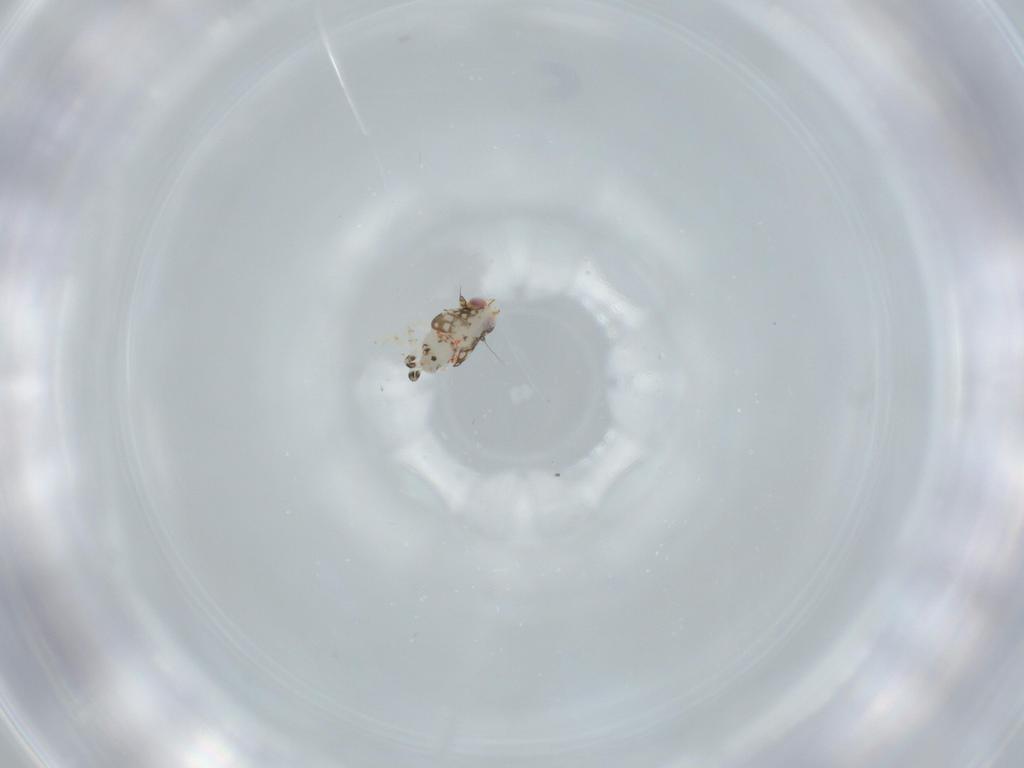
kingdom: Animalia
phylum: Arthropoda
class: Insecta
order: Hemiptera
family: Nogodinidae
